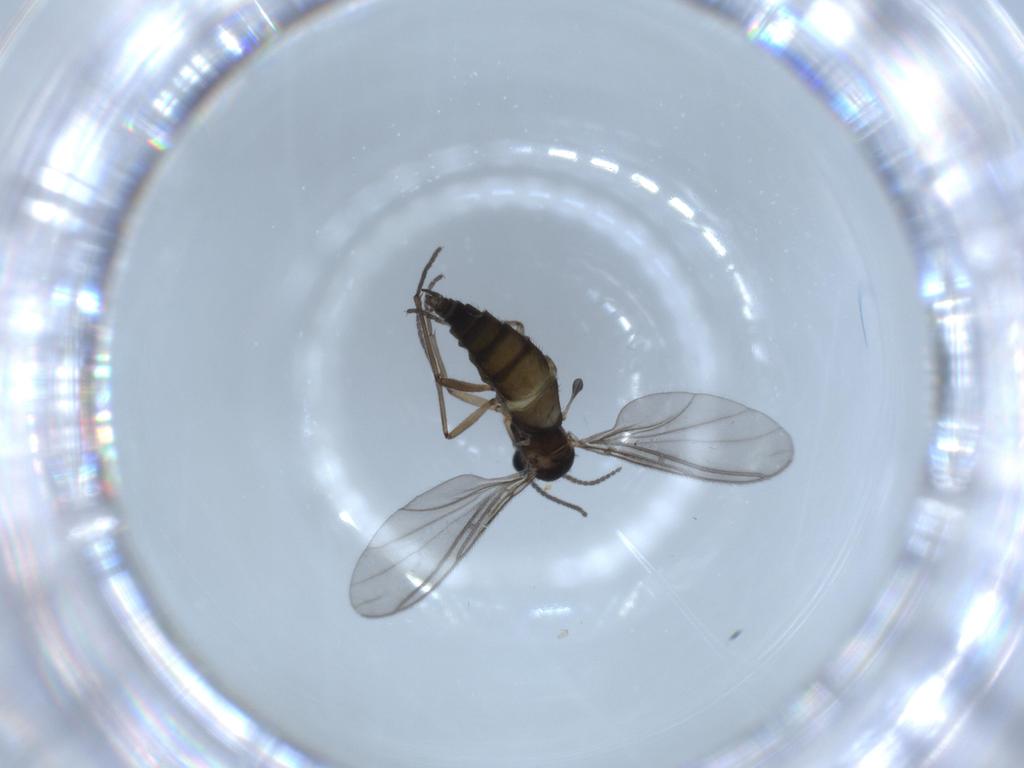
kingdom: Animalia
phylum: Arthropoda
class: Insecta
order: Diptera
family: Sciaridae
